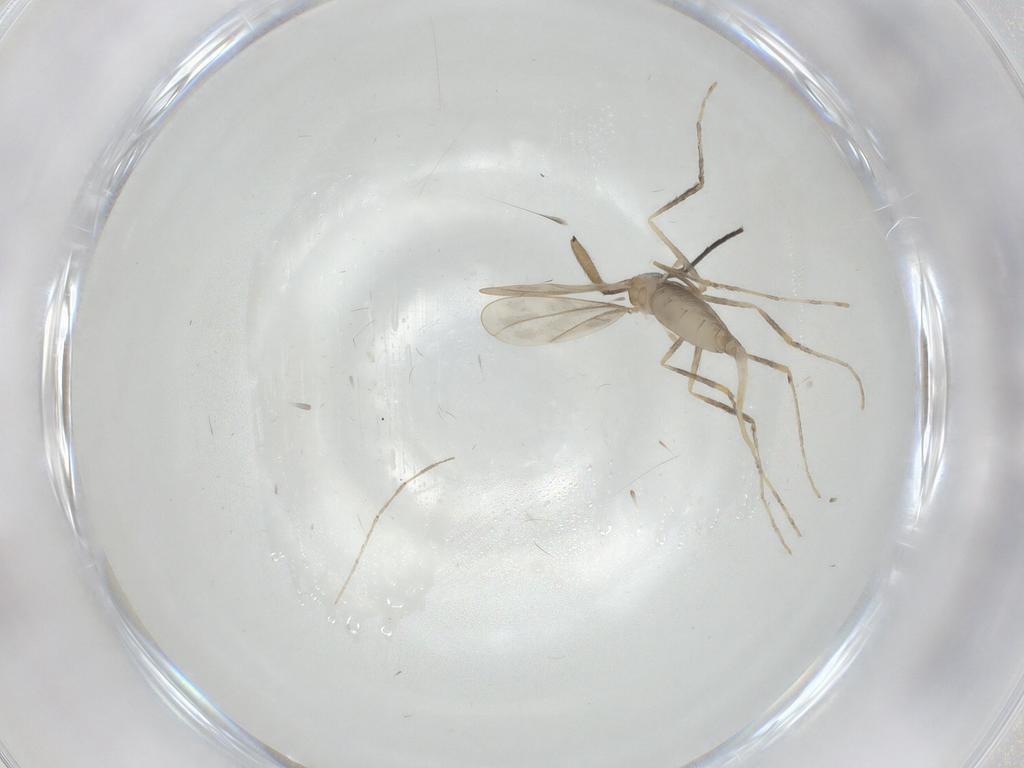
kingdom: Animalia
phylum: Arthropoda
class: Insecta
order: Diptera
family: Cecidomyiidae
